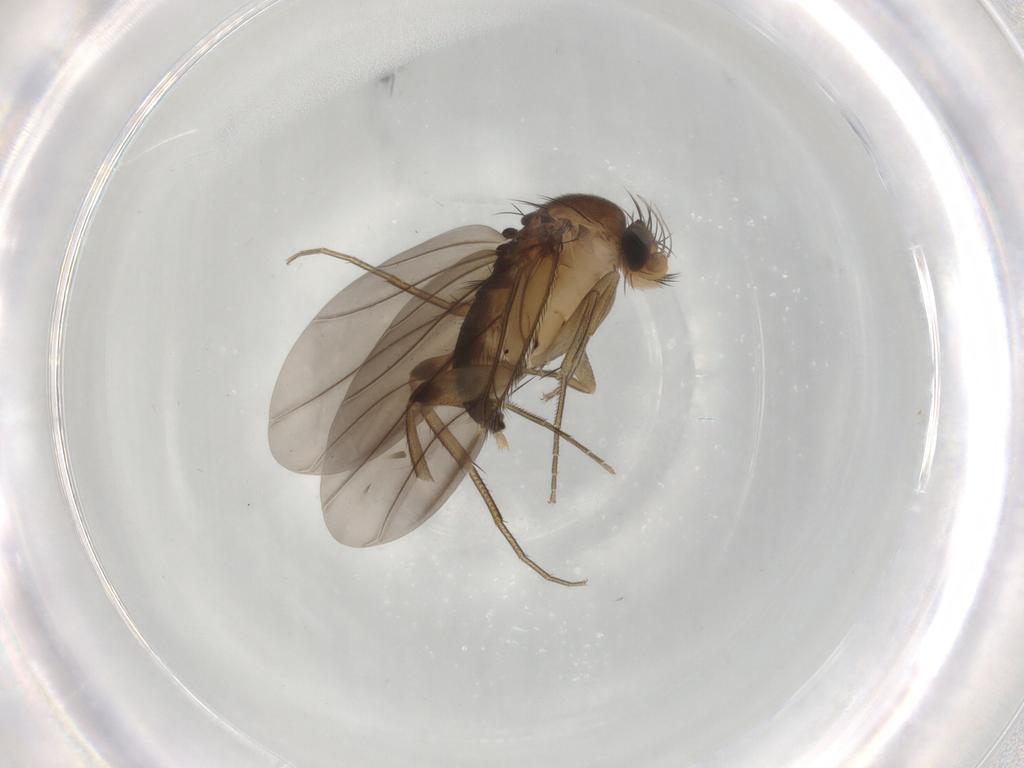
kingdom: Animalia
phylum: Arthropoda
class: Insecta
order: Diptera
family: Phoridae
